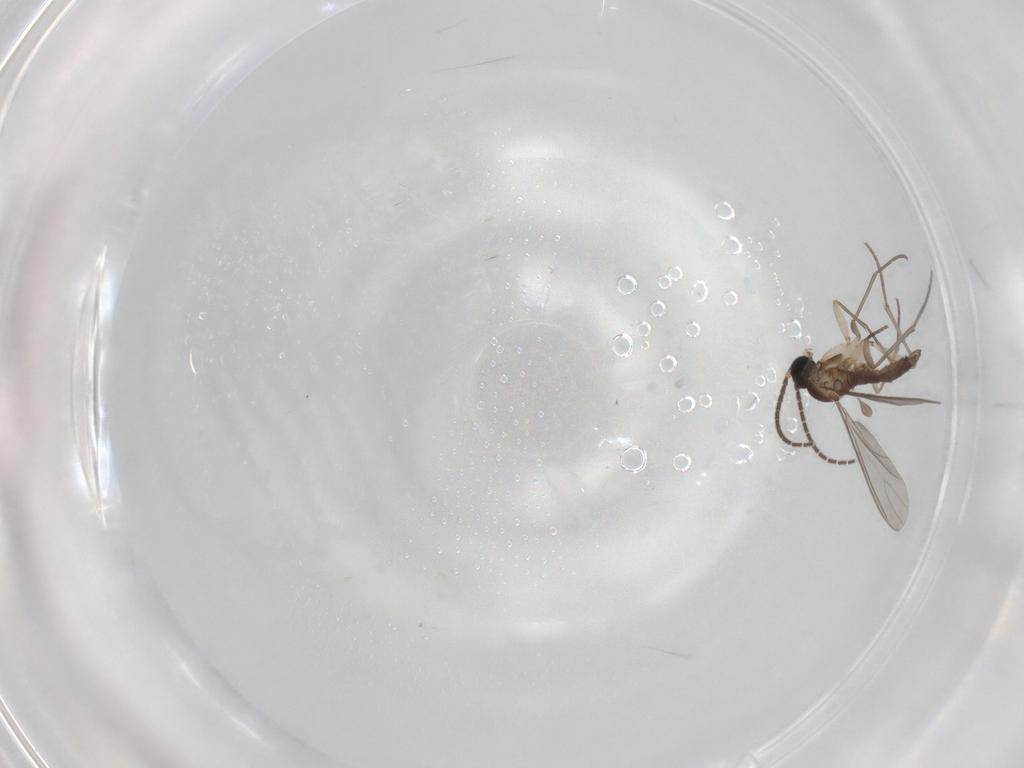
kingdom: Animalia
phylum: Arthropoda
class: Insecta
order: Diptera
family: Sciaridae
